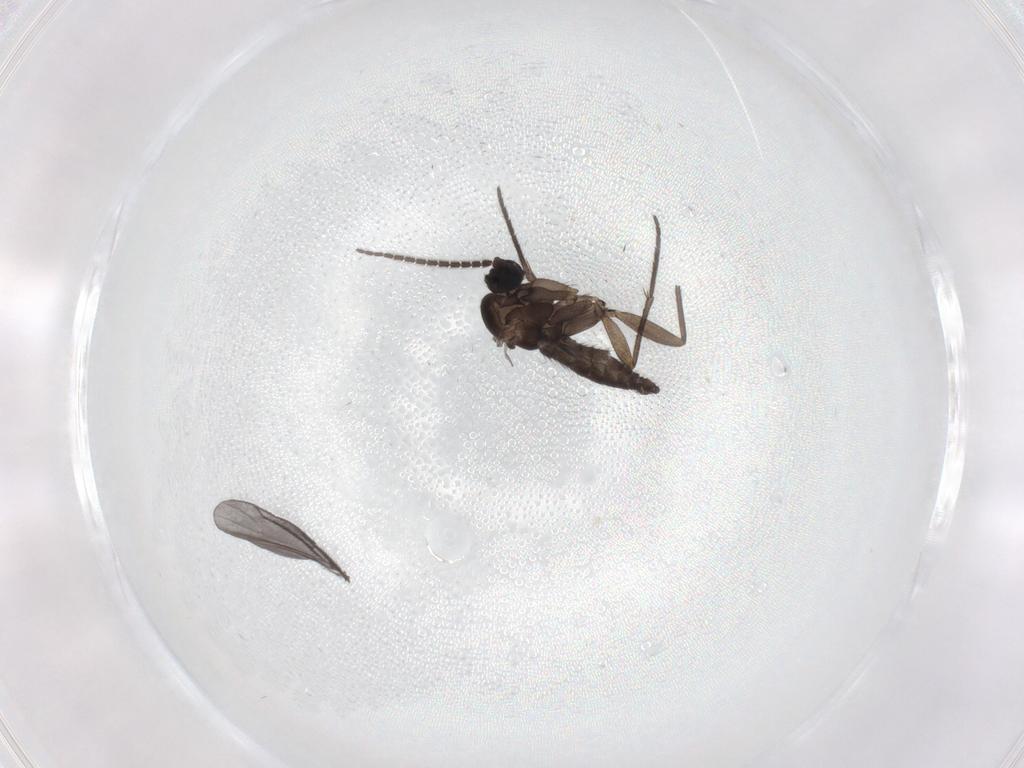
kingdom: Animalia
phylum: Arthropoda
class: Insecta
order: Diptera
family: Sciaridae
